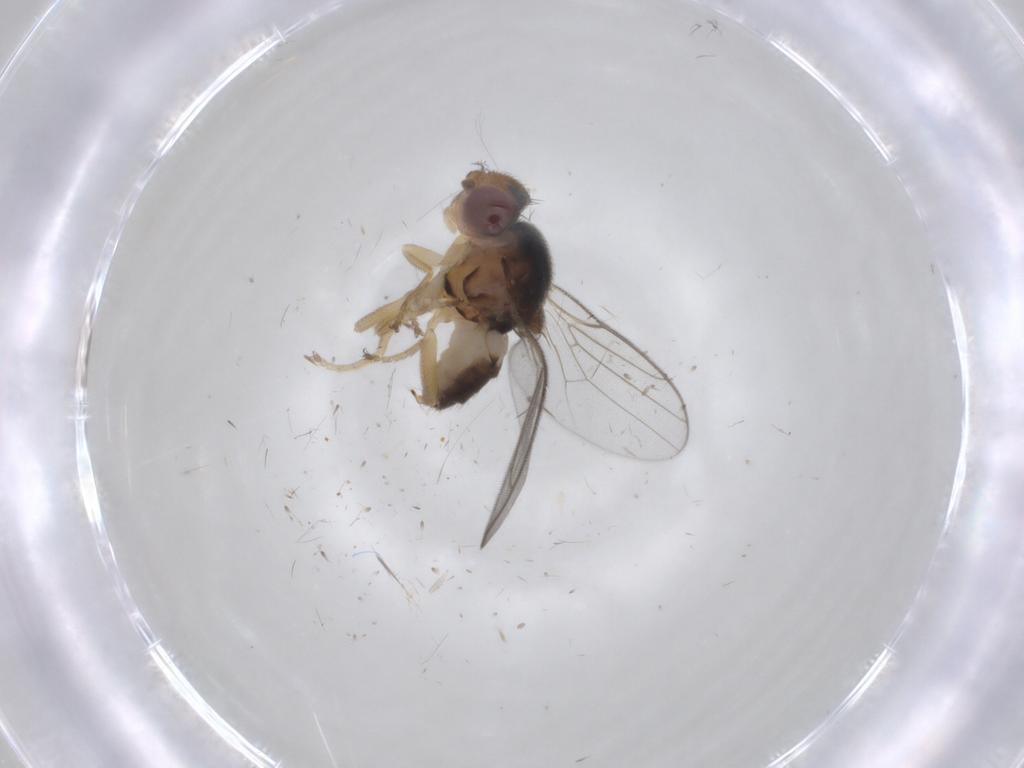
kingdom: Animalia
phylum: Arthropoda
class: Insecta
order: Diptera
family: Chloropidae
